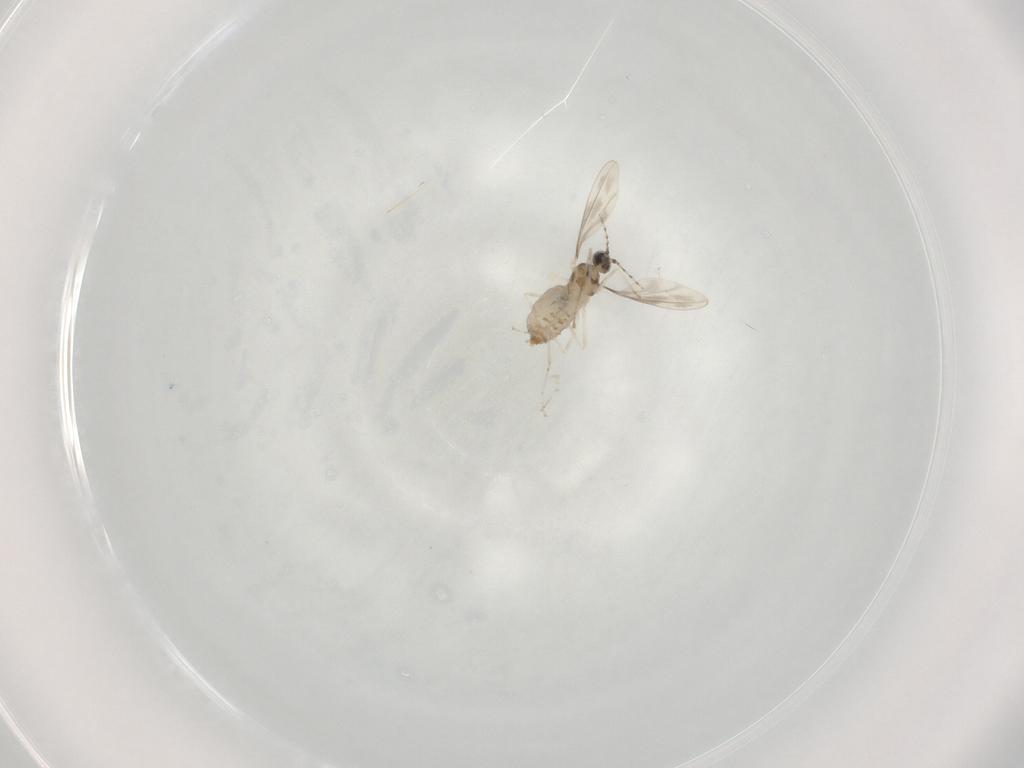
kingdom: Animalia
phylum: Arthropoda
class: Insecta
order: Diptera
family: Cecidomyiidae
